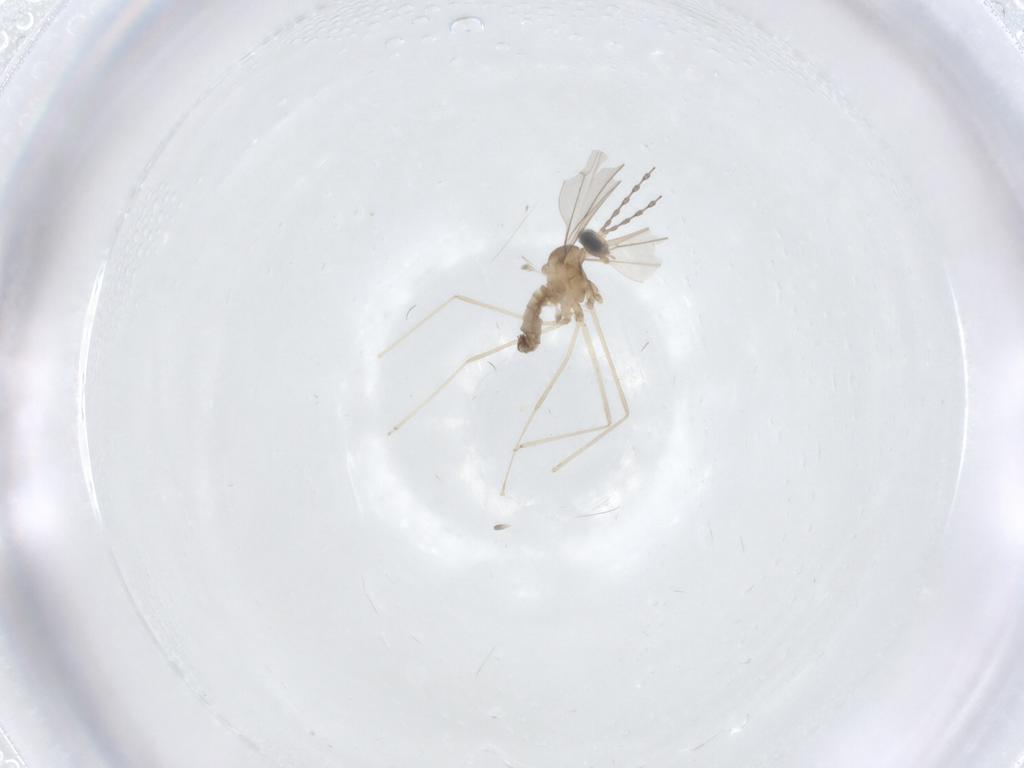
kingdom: Animalia
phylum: Arthropoda
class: Insecta
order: Diptera
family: Cecidomyiidae
